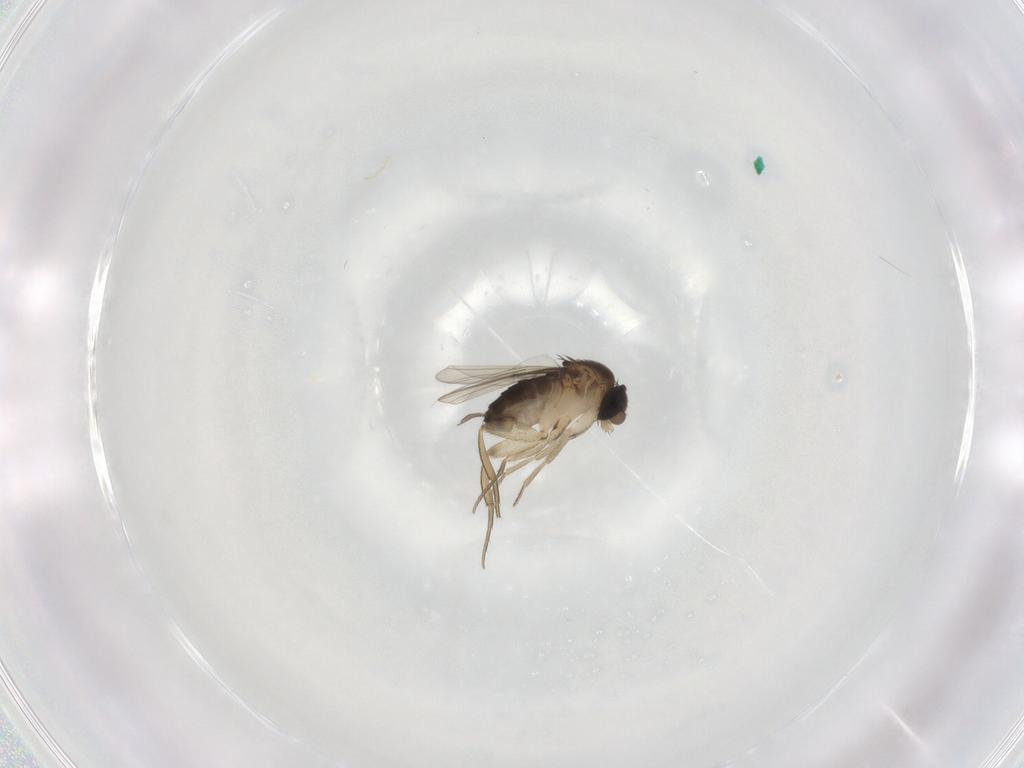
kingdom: Animalia
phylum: Arthropoda
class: Insecta
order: Diptera
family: Cecidomyiidae
